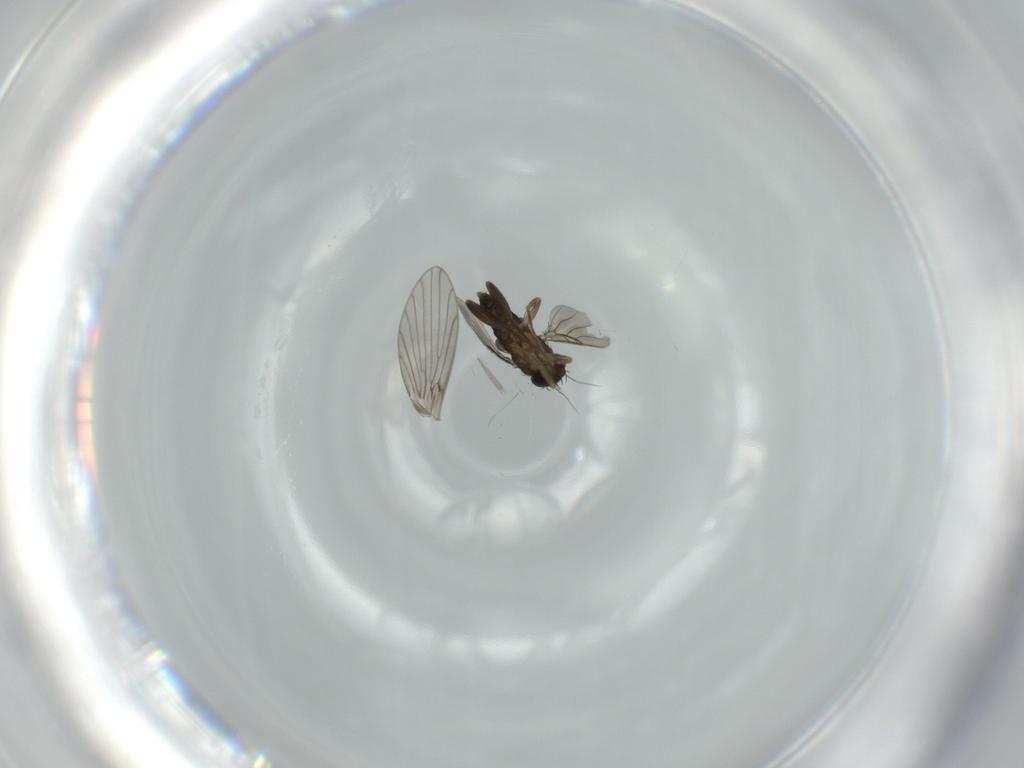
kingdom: Animalia
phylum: Arthropoda
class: Insecta
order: Diptera
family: Phoridae
